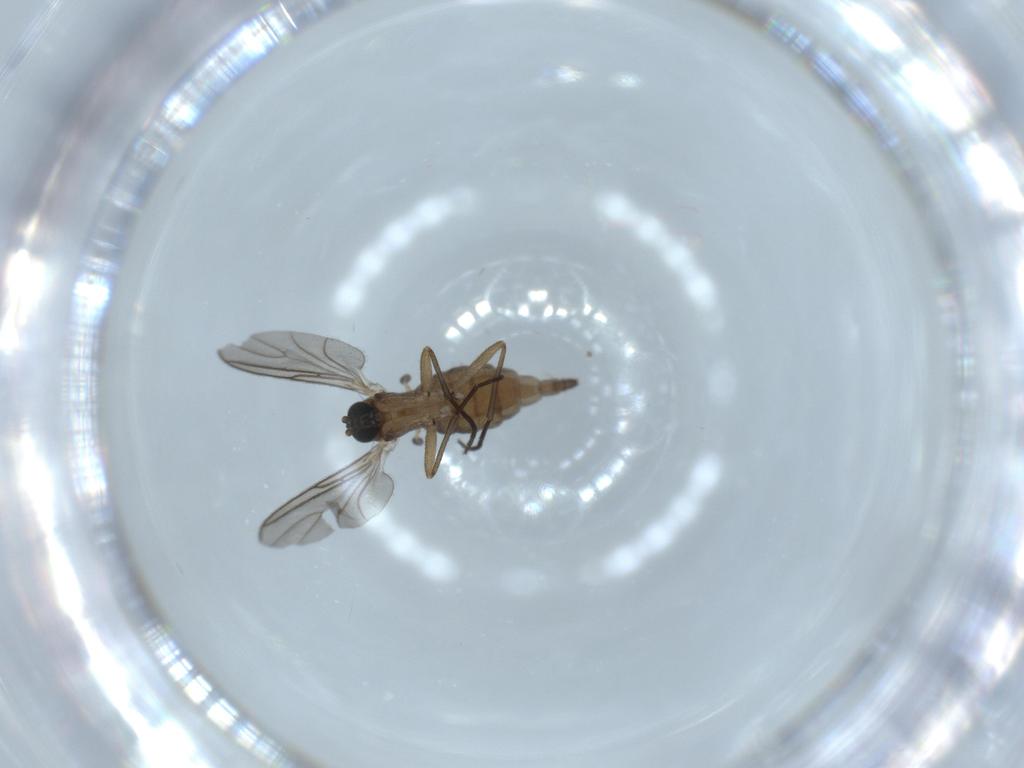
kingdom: Animalia
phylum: Arthropoda
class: Insecta
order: Diptera
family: Sciaridae
